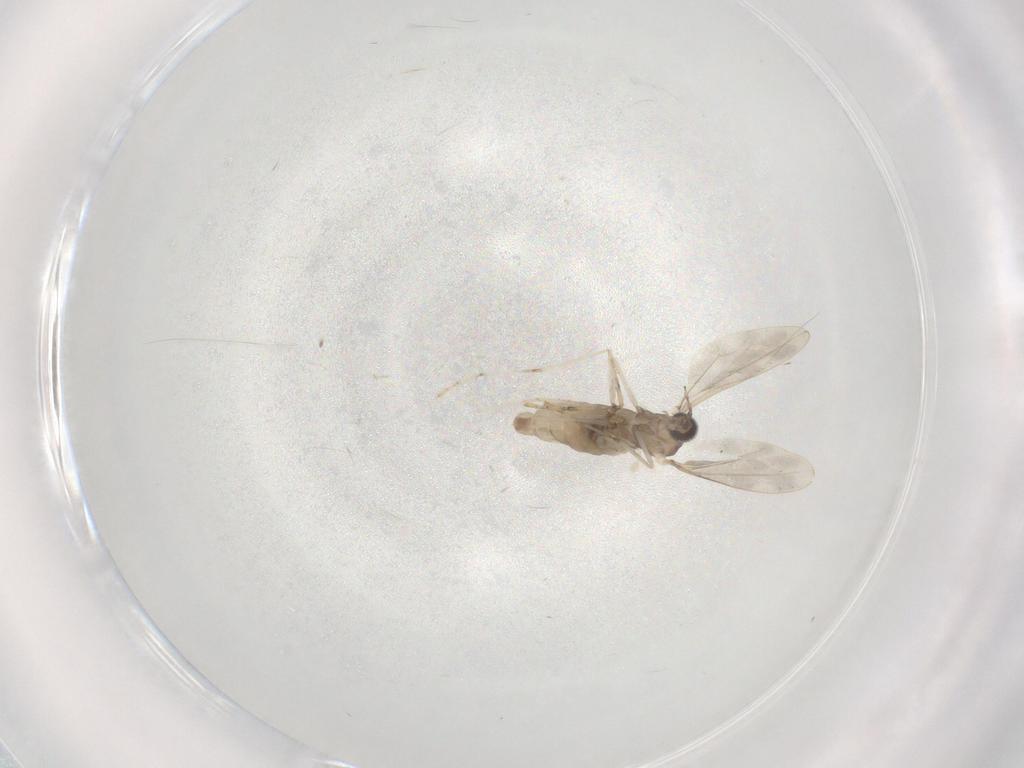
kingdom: Animalia
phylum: Arthropoda
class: Insecta
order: Diptera
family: Cecidomyiidae
